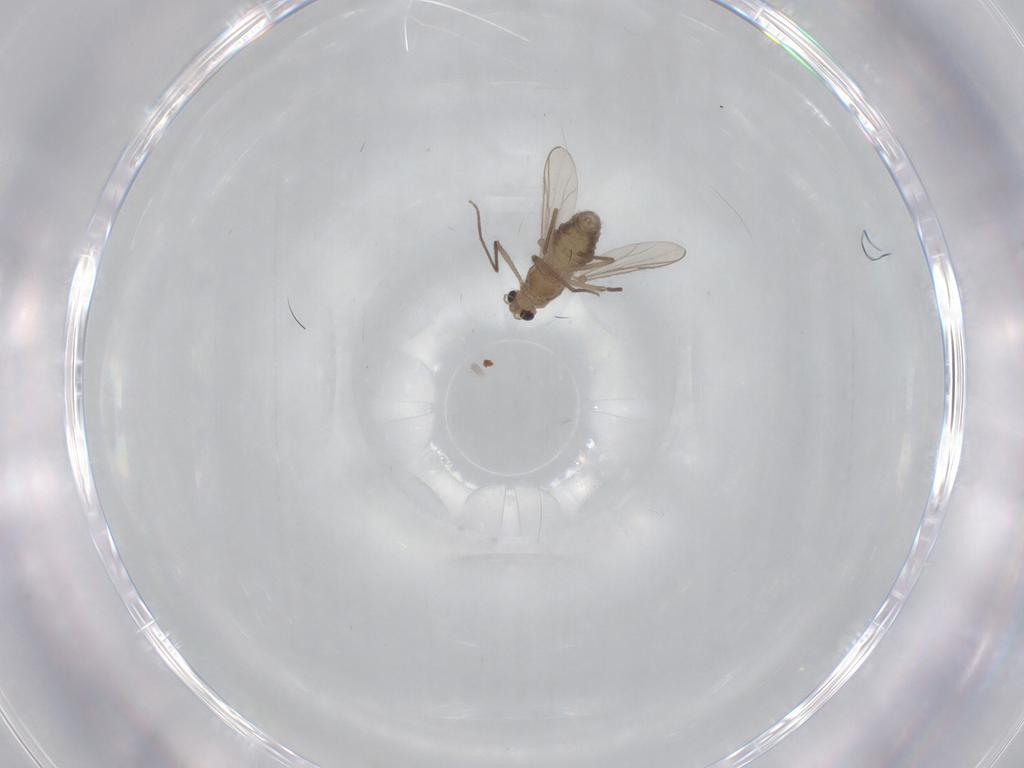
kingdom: Animalia
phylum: Arthropoda
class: Insecta
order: Diptera
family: Chironomidae
